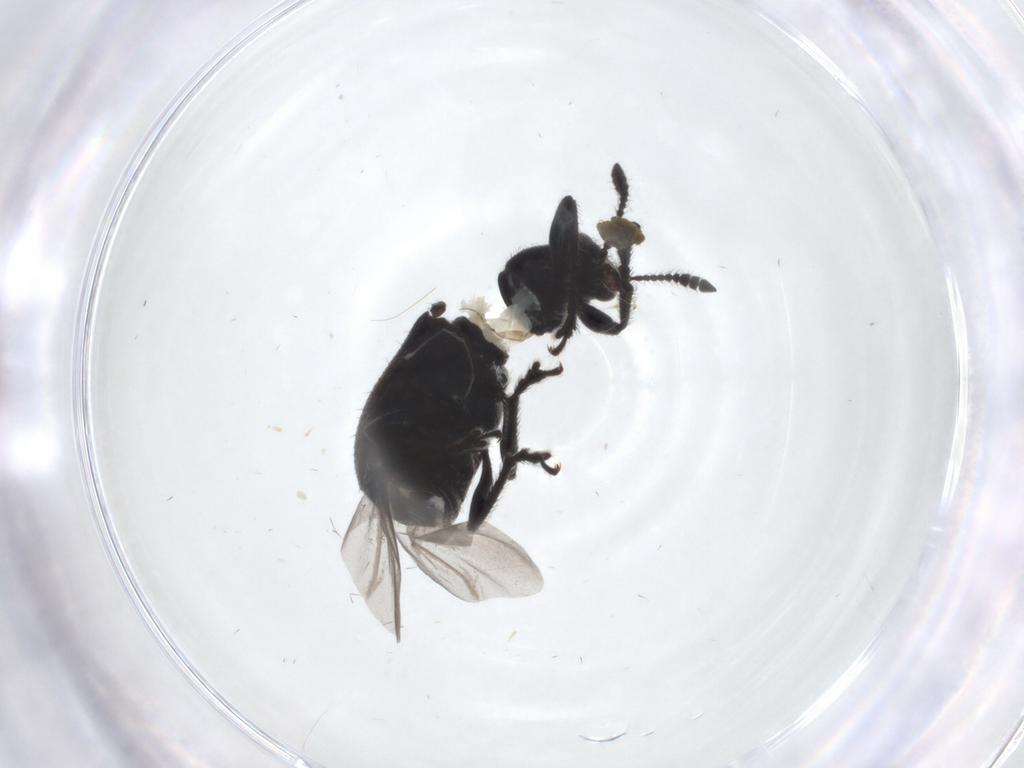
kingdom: Animalia
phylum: Arthropoda
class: Insecta
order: Coleoptera
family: Attelabidae
